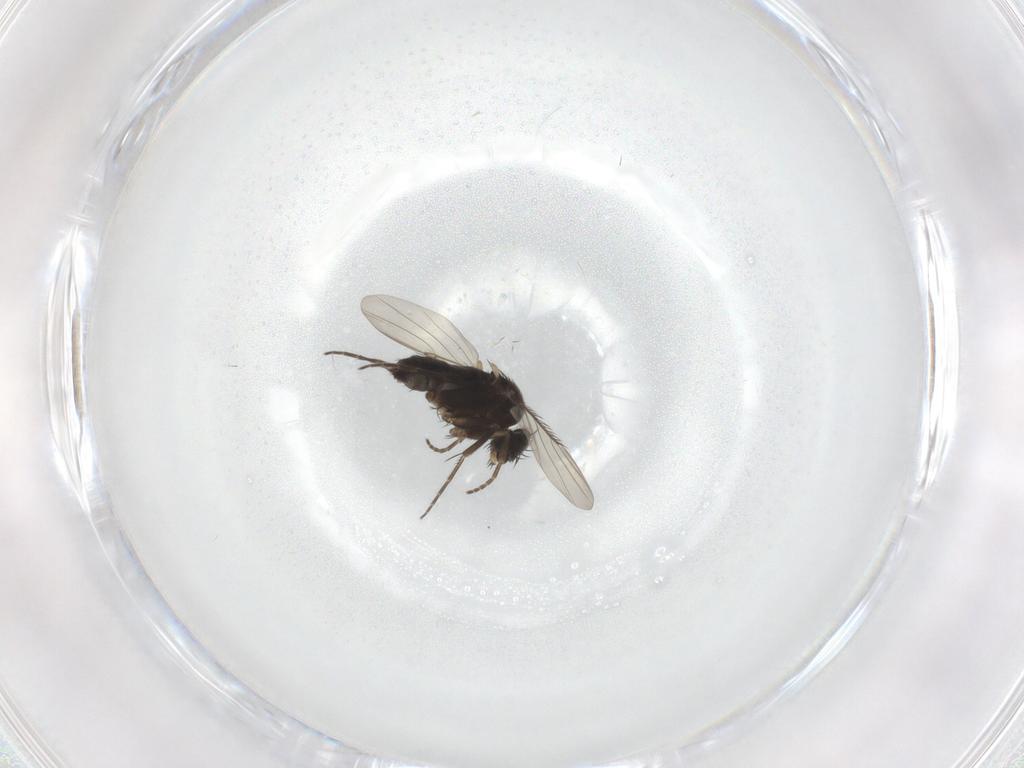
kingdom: Animalia
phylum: Arthropoda
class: Insecta
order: Diptera
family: Phoridae
